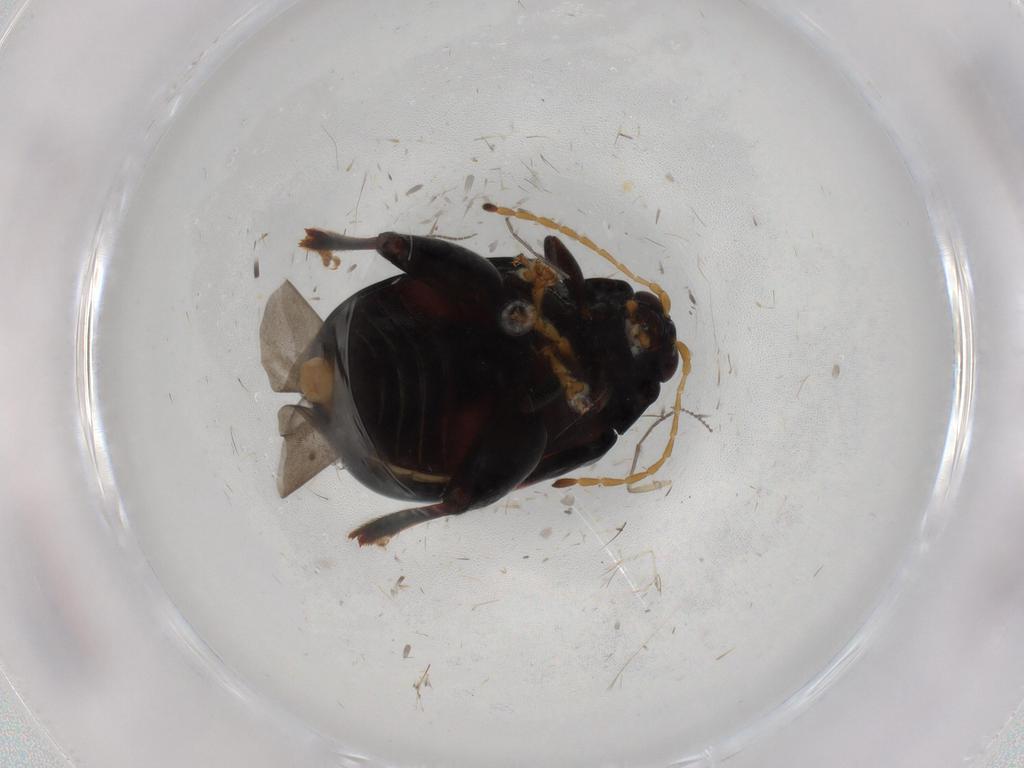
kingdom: Animalia
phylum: Arthropoda
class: Insecta
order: Coleoptera
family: Chrysomelidae
